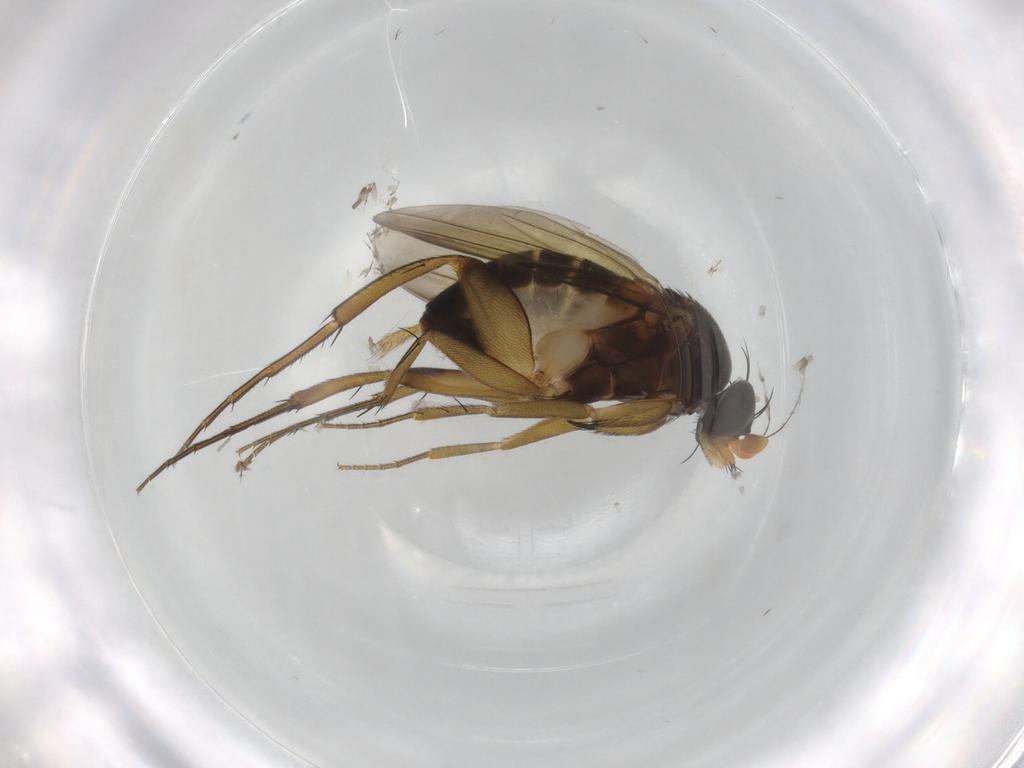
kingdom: Animalia
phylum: Arthropoda
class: Insecta
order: Diptera
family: Phoridae
